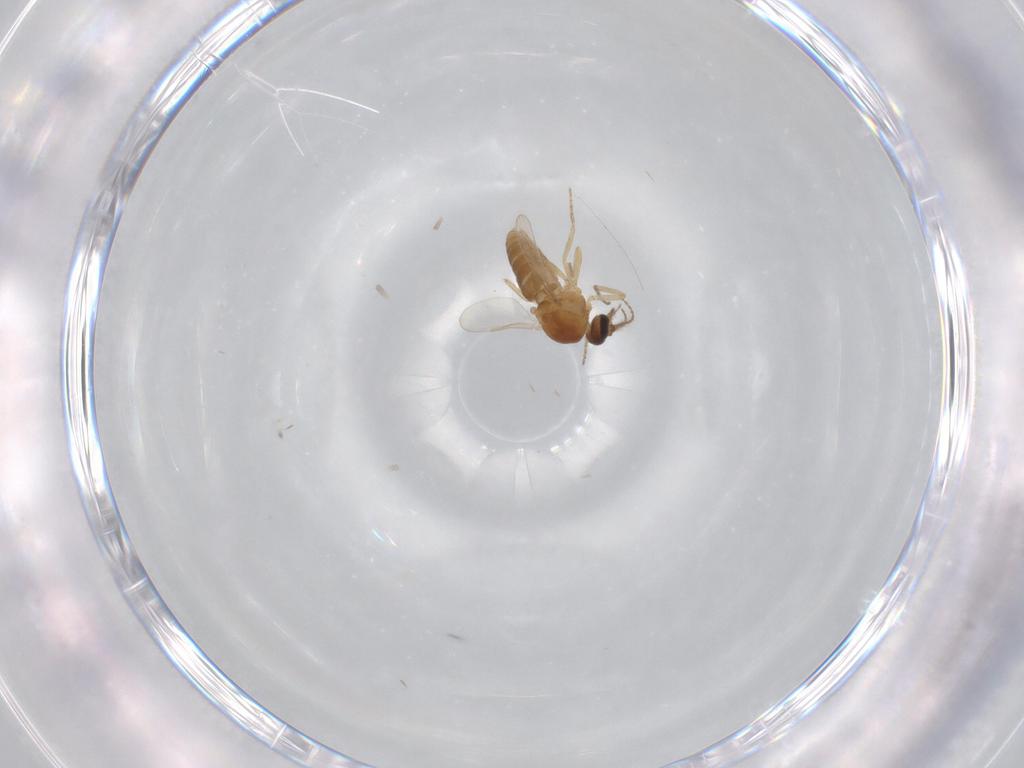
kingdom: Animalia
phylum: Arthropoda
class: Insecta
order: Diptera
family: Ceratopogonidae
